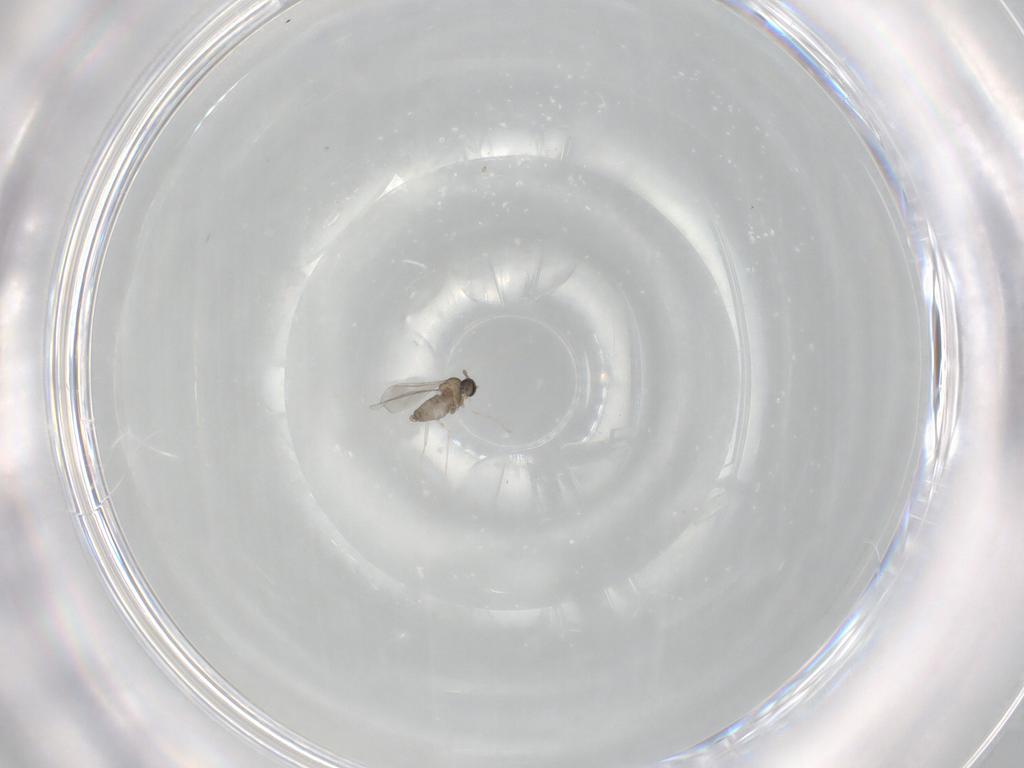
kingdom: Animalia
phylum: Arthropoda
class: Insecta
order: Diptera
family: Cecidomyiidae
